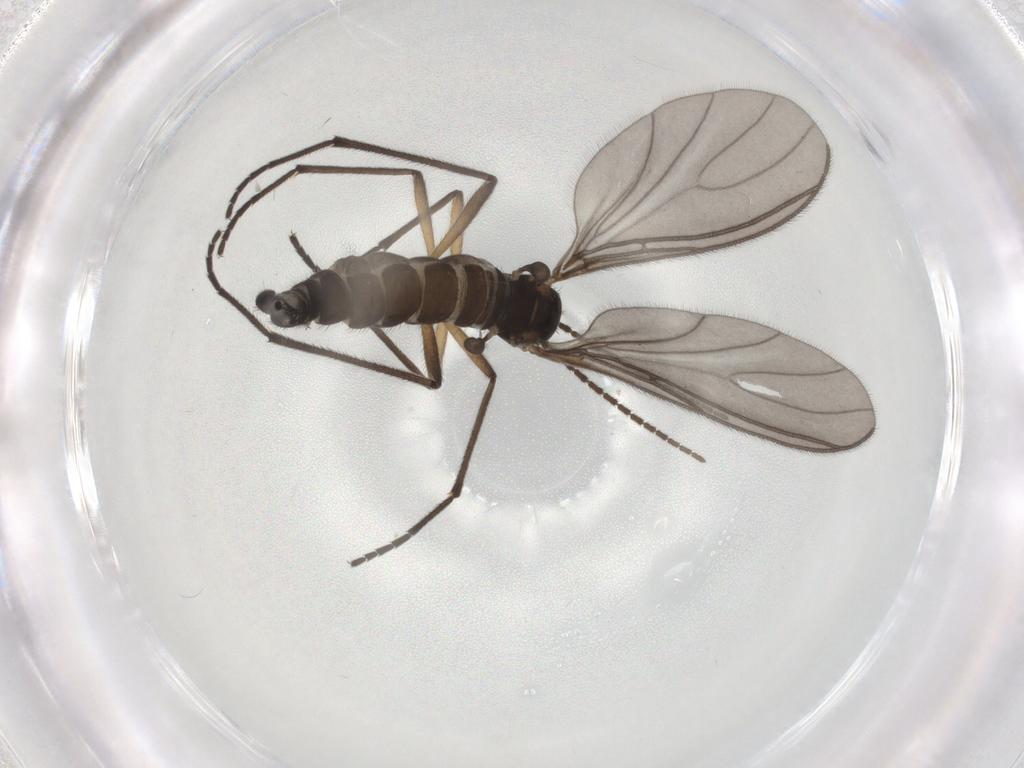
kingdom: Animalia
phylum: Arthropoda
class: Insecta
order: Diptera
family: Sciaridae
